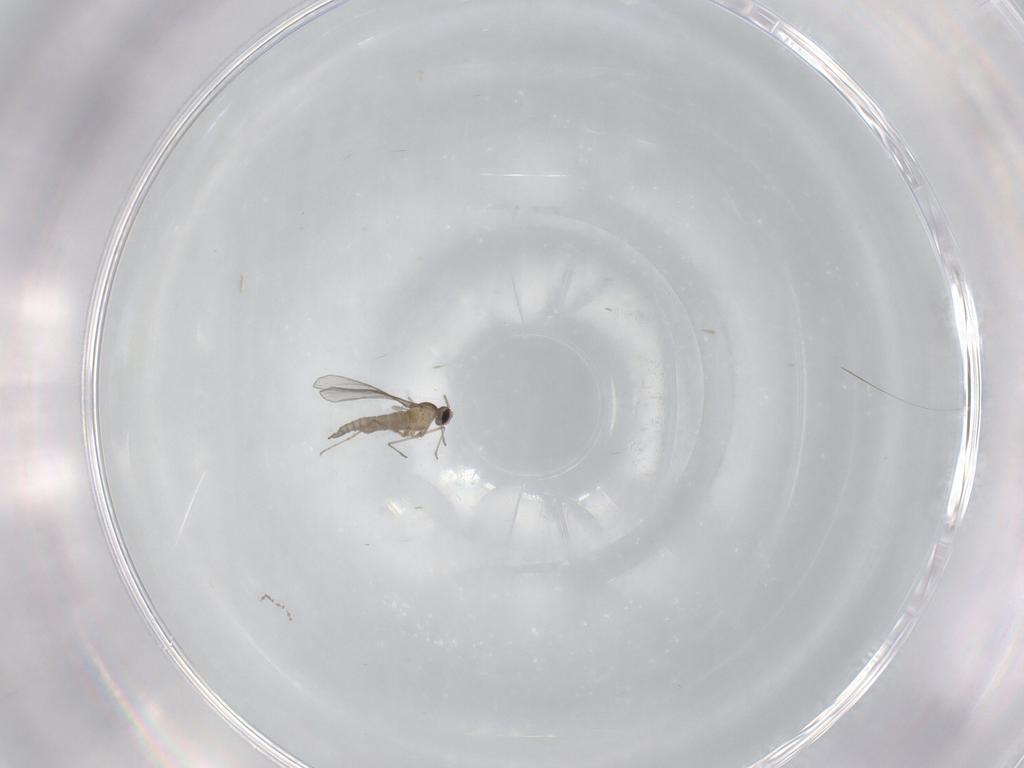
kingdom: Animalia
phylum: Arthropoda
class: Insecta
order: Diptera
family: Cecidomyiidae
